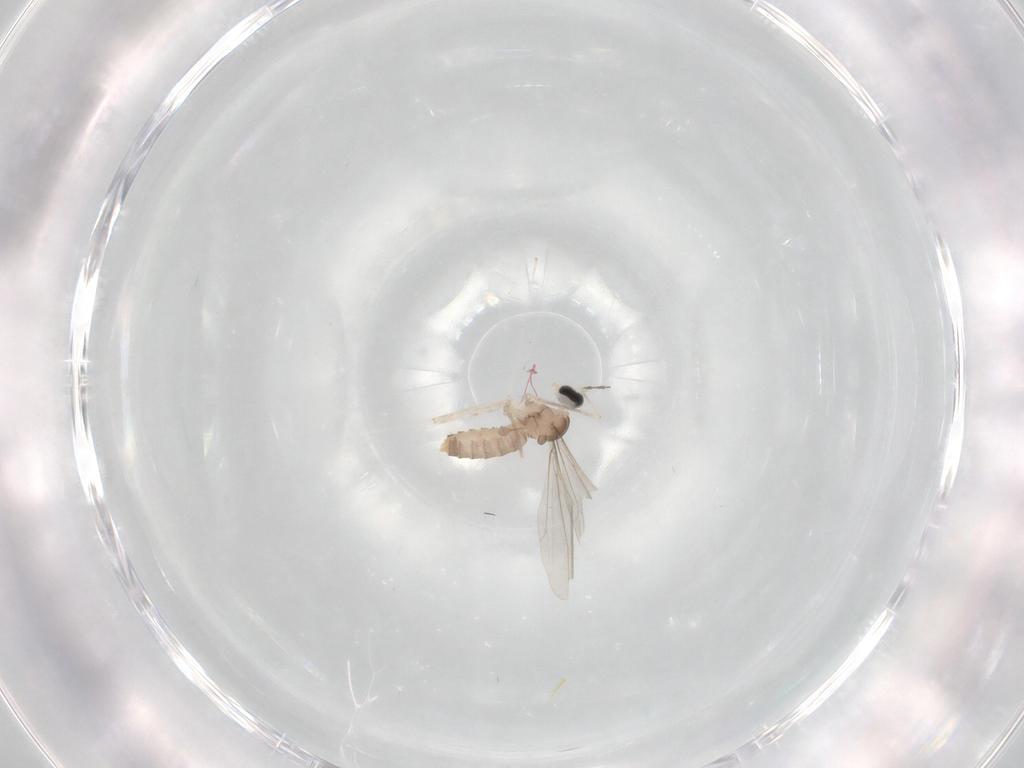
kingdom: Animalia
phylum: Arthropoda
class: Insecta
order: Diptera
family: Cecidomyiidae
